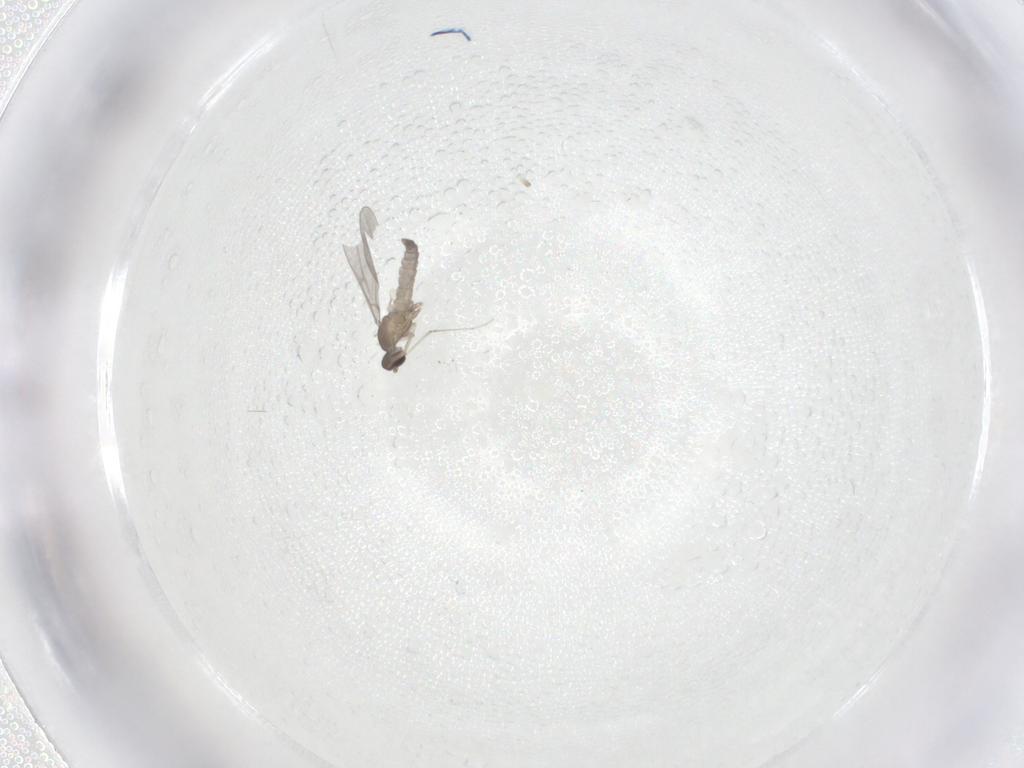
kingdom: Animalia
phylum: Arthropoda
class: Insecta
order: Diptera
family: Cecidomyiidae
